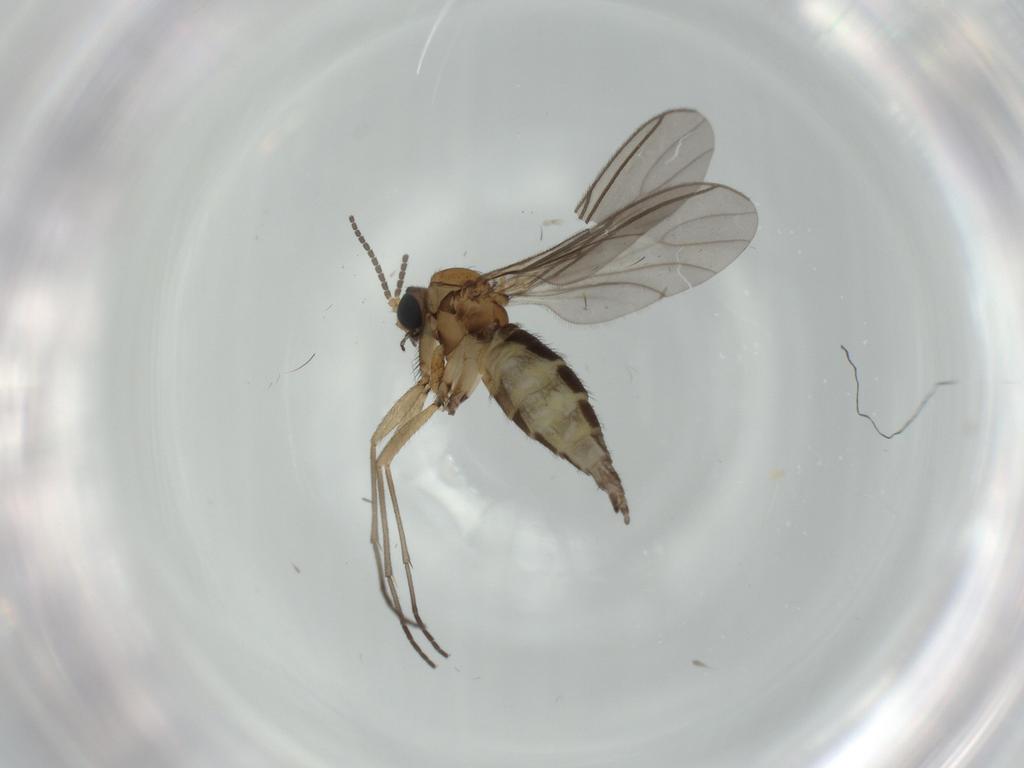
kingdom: Animalia
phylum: Arthropoda
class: Insecta
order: Diptera
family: Sciaridae
